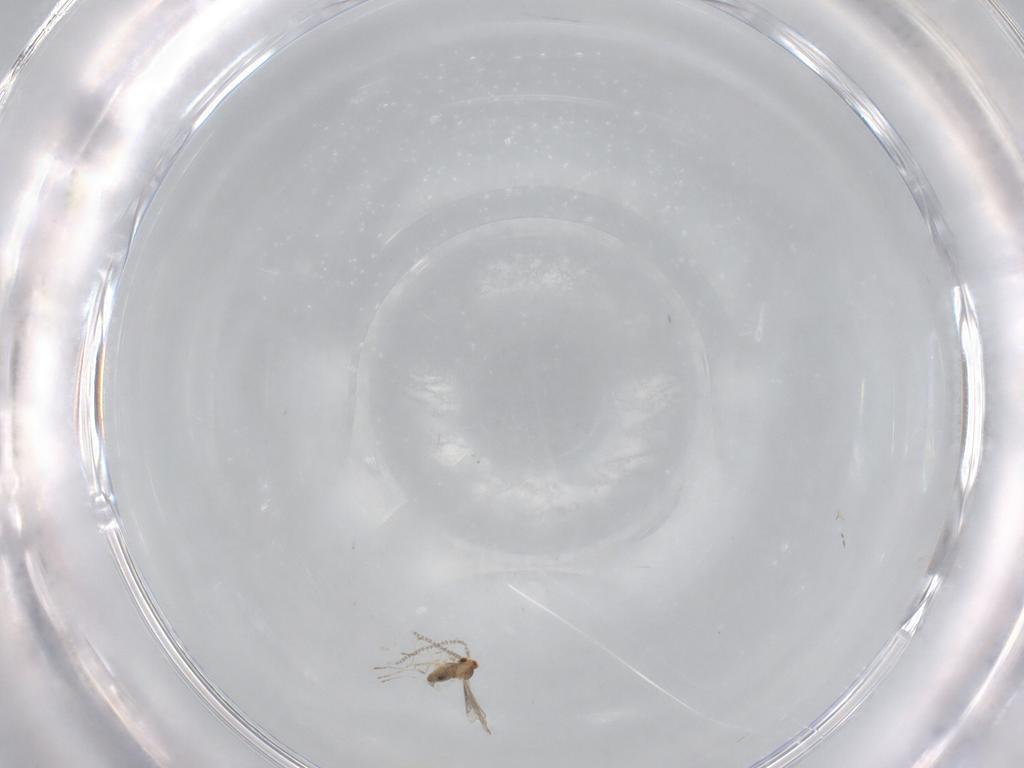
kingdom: Animalia
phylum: Arthropoda
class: Insecta
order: Diptera
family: Cecidomyiidae
